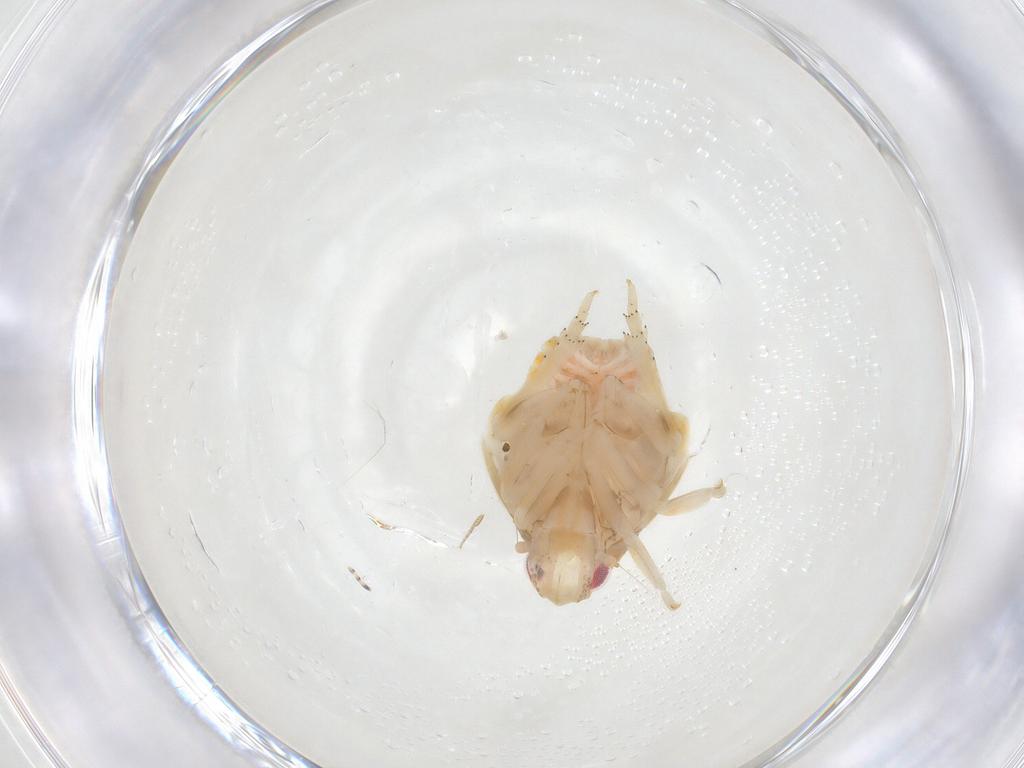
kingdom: Animalia
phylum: Arthropoda
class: Insecta
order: Hemiptera
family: Flatidae
